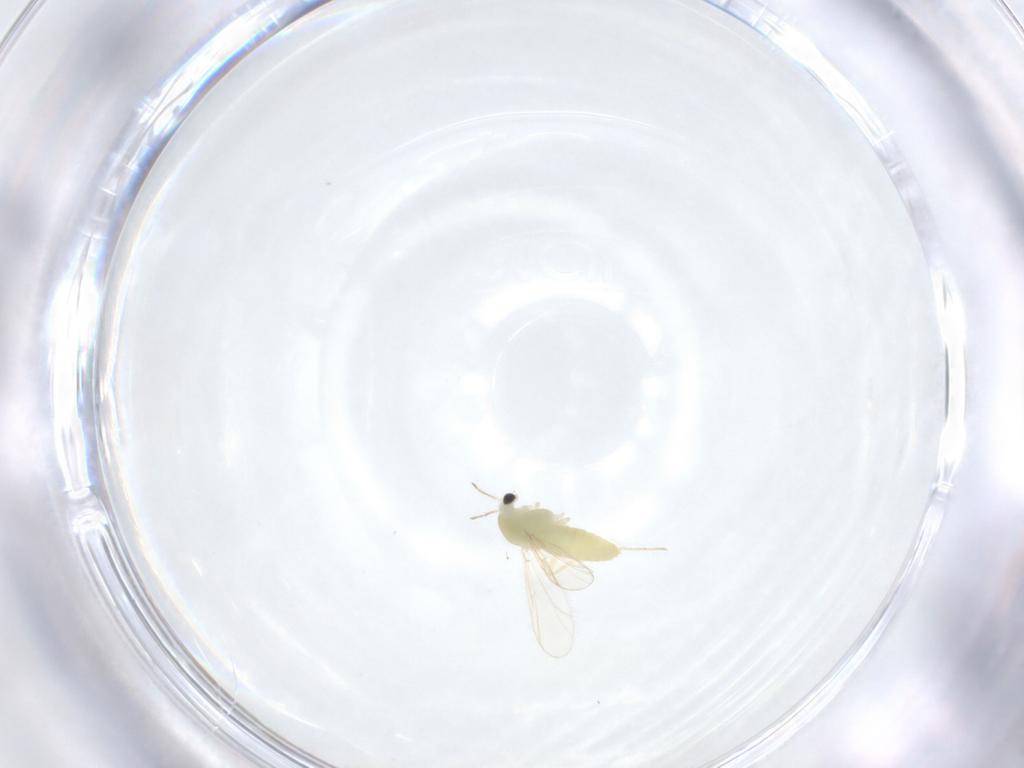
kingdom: Animalia
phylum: Arthropoda
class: Insecta
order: Diptera
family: Chironomidae
